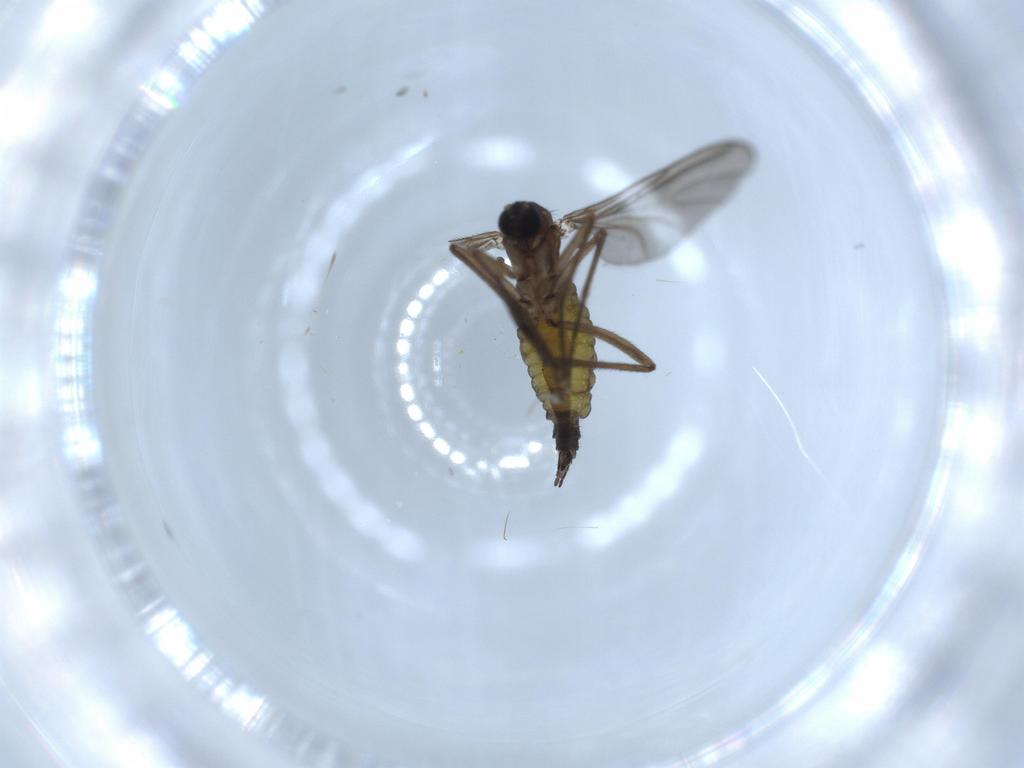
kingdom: Animalia
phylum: Arthropoda
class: Insecta
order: Diptera
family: Sciaridae
